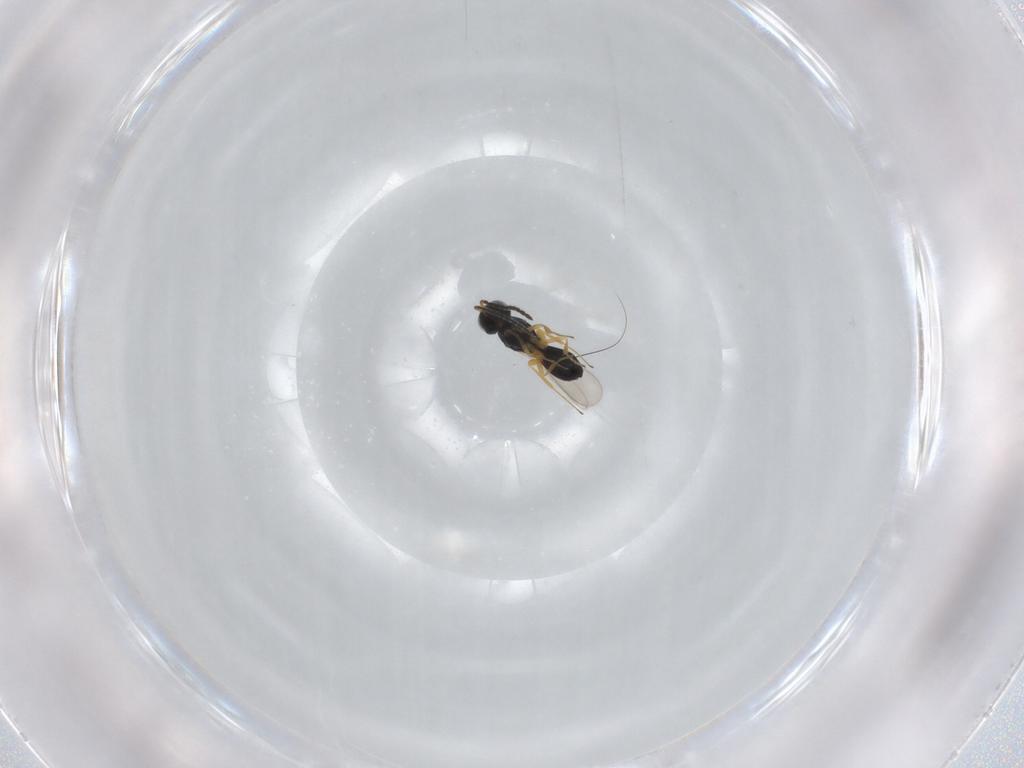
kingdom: Animalia
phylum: Arthropoda
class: Insecta
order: Hymenoptera
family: Scelionidae
